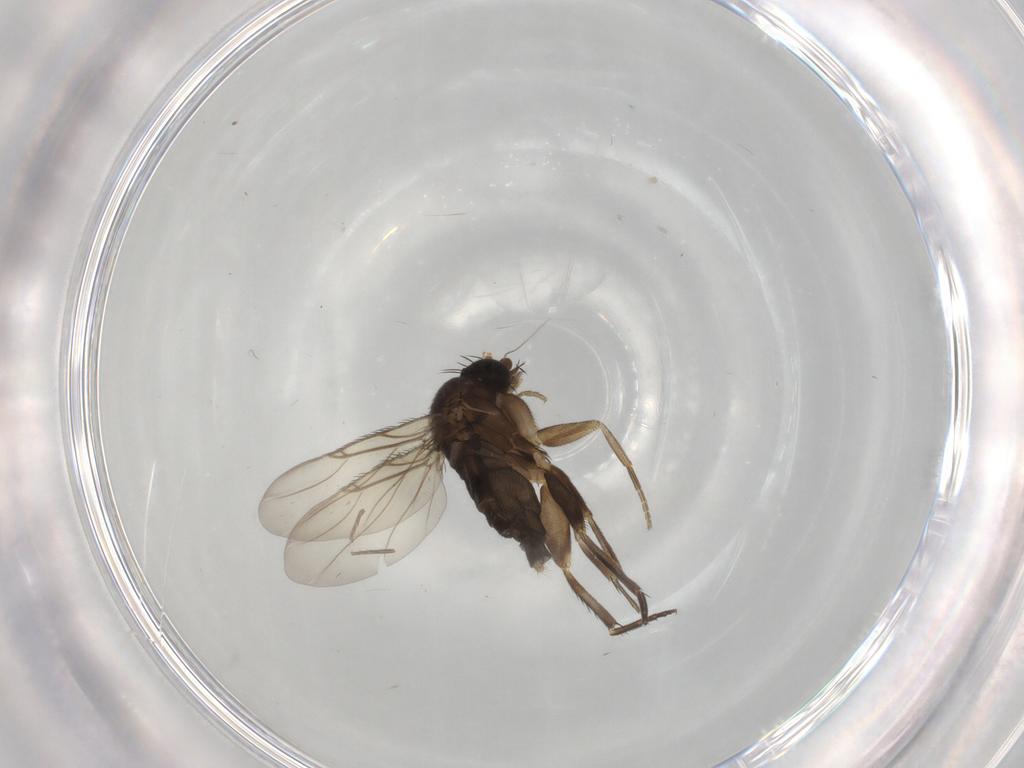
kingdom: Animalia
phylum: Arthropoda
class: Insecta
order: Diptera
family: Phoridae
